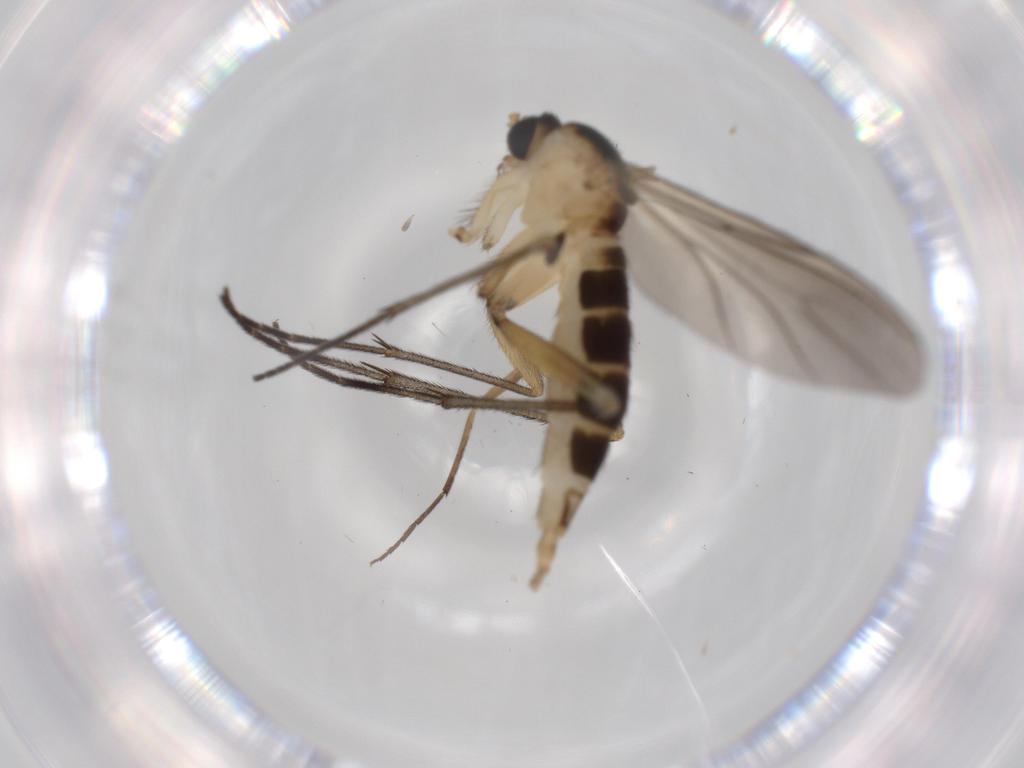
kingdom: Animalia
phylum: Arthropoda
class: Insecta
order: Diptera
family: Sciaridae
